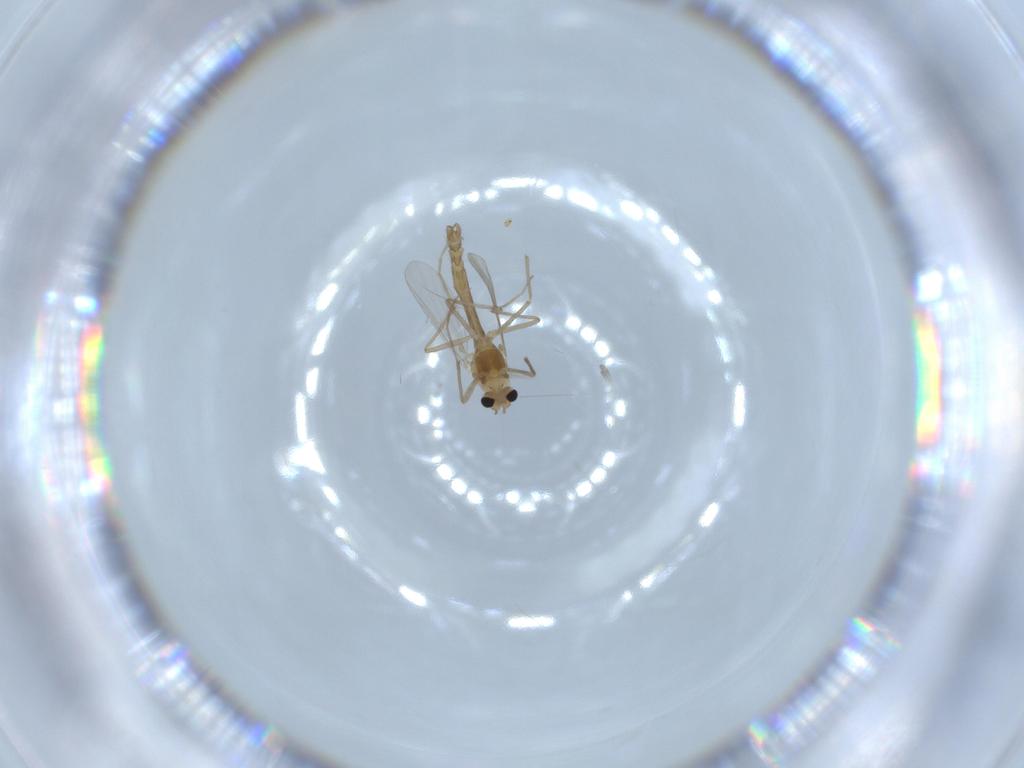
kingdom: Animalia
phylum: Arthropoda
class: Insecta
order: Diptera
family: Chironomidae
